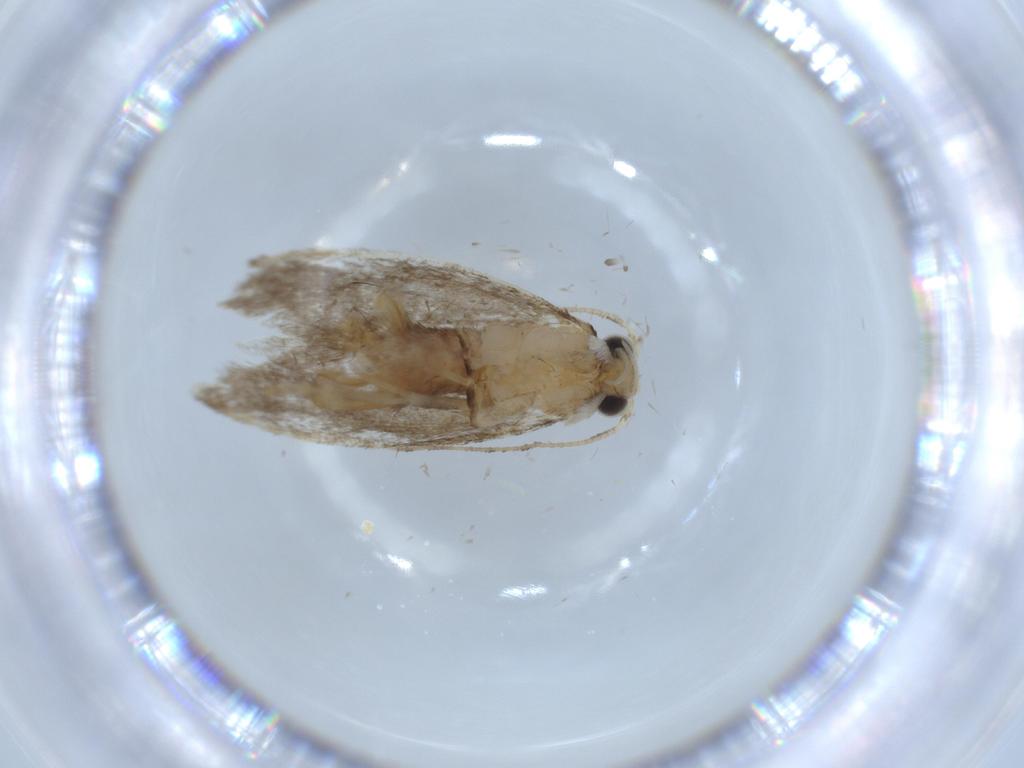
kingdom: Animalia
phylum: Arthropoda
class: Insecta
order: Lepidoptera
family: Tineidae
